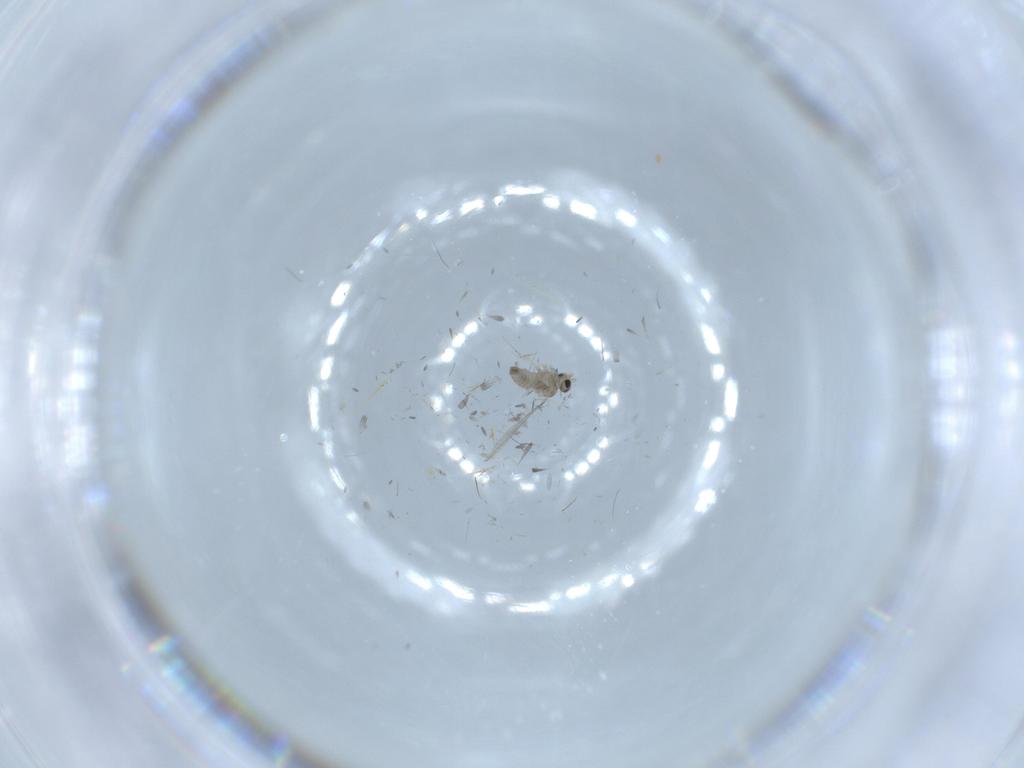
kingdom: Animalia
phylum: Arthropoda
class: Insecta
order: Diptera
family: Cecidomyiidae
